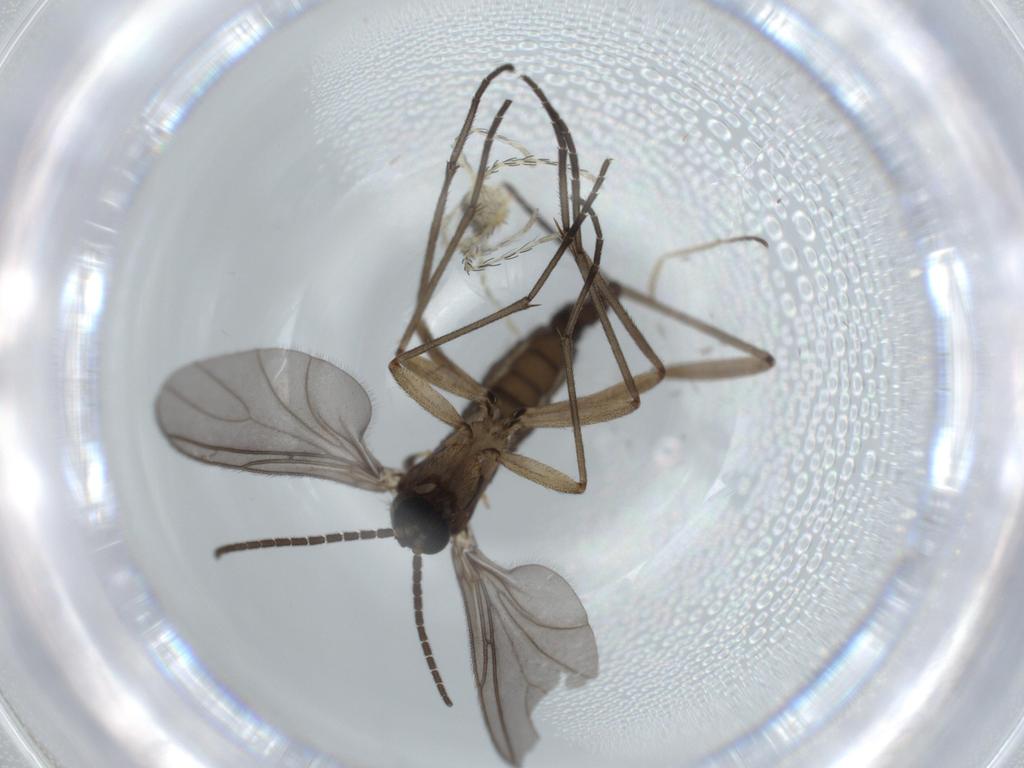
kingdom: Animalia
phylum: Arthropoda
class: Insecta
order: Diptera
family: Sciaridae
